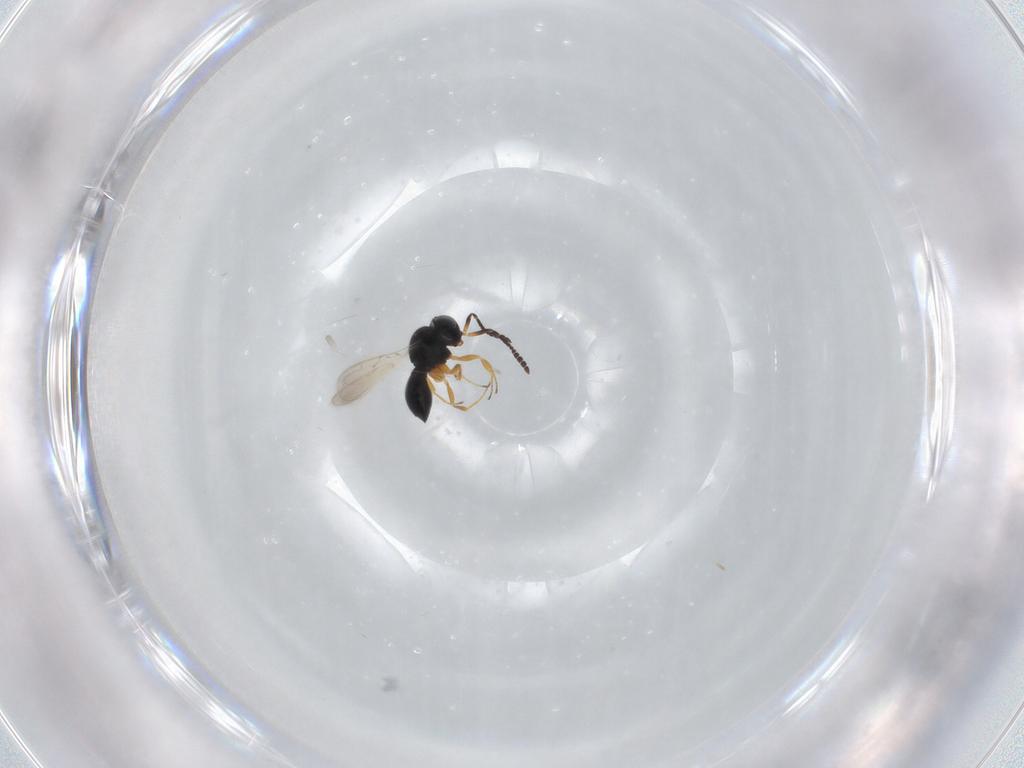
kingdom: Animalia
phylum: Arthropoda
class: Insecta
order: Hymenoptera
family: Scelionidae
